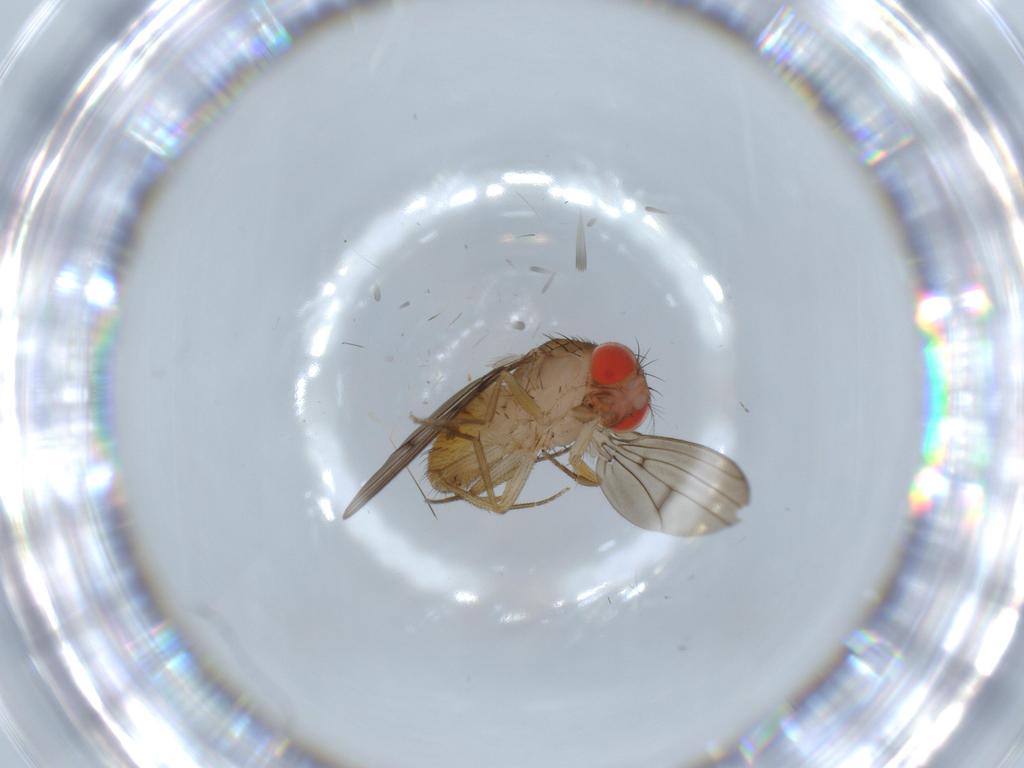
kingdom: Animalia
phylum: Arthropoda
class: Insecta
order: Diptera
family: Drosophilidae
